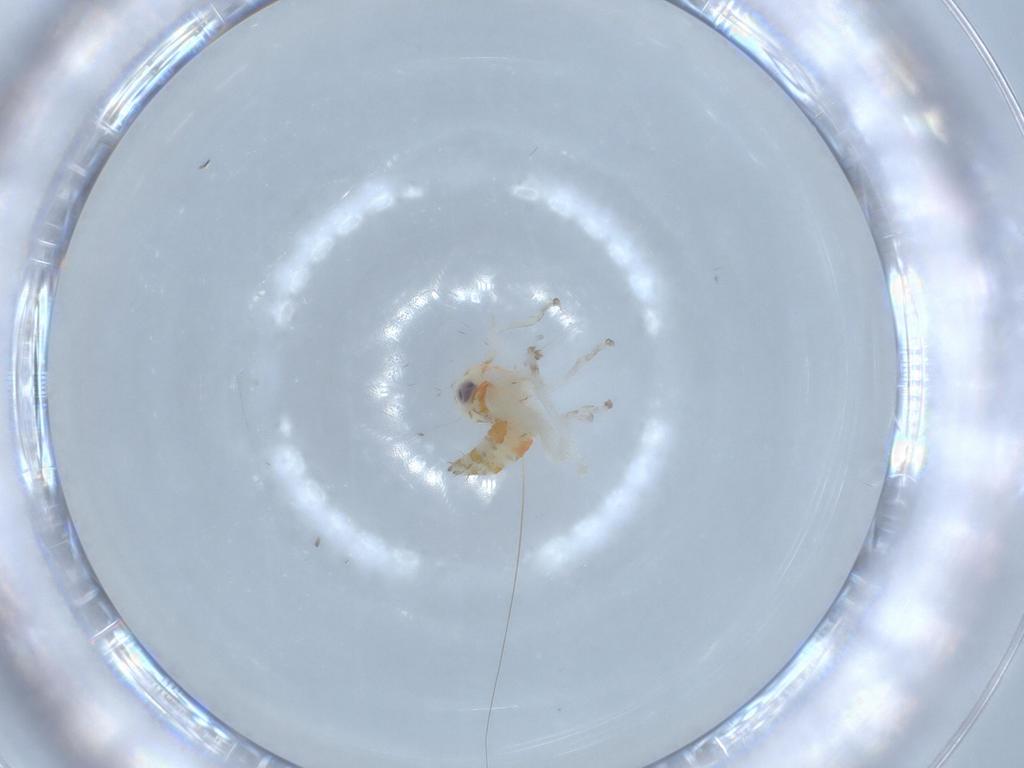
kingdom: Animalia
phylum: Arthropoda
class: Insecta
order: Hemiptera
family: Cicadellidae
